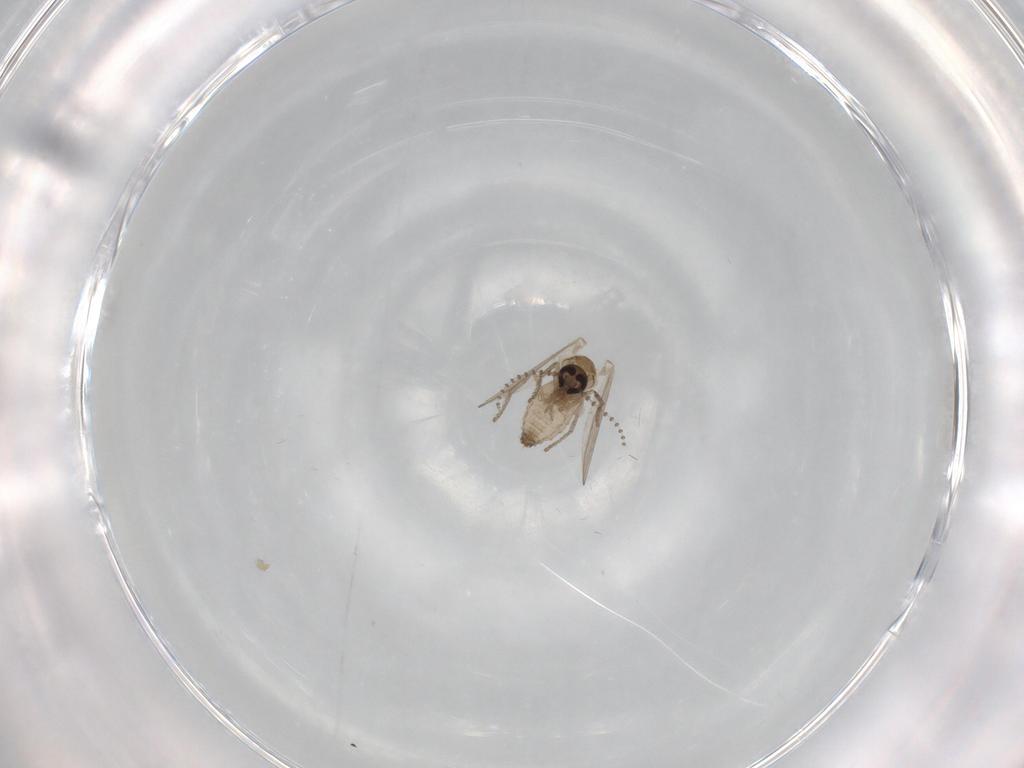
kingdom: Animalia
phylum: Arthropoda
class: Insecta
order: Diptera
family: Psychodidae
